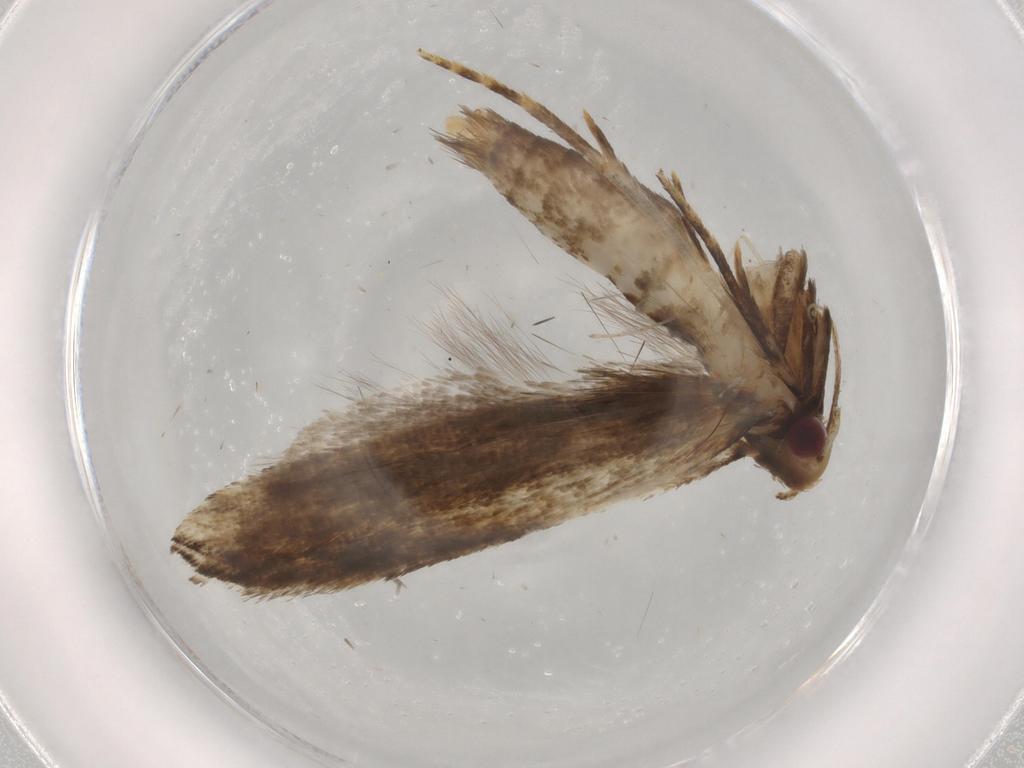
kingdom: Animalia
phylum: Arthropoda
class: Insecta
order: Lepidoptera
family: Gelechiidae
